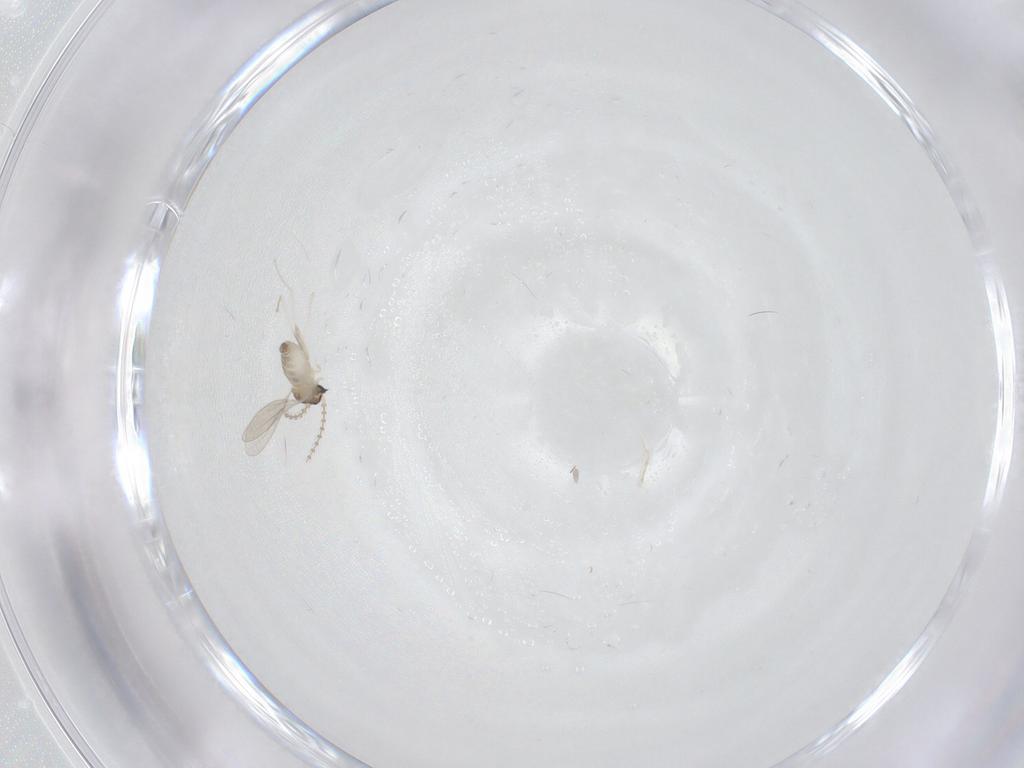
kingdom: Animalia
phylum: Arthropoda
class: Insecta
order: Diptera
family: Cecidomyiidae
